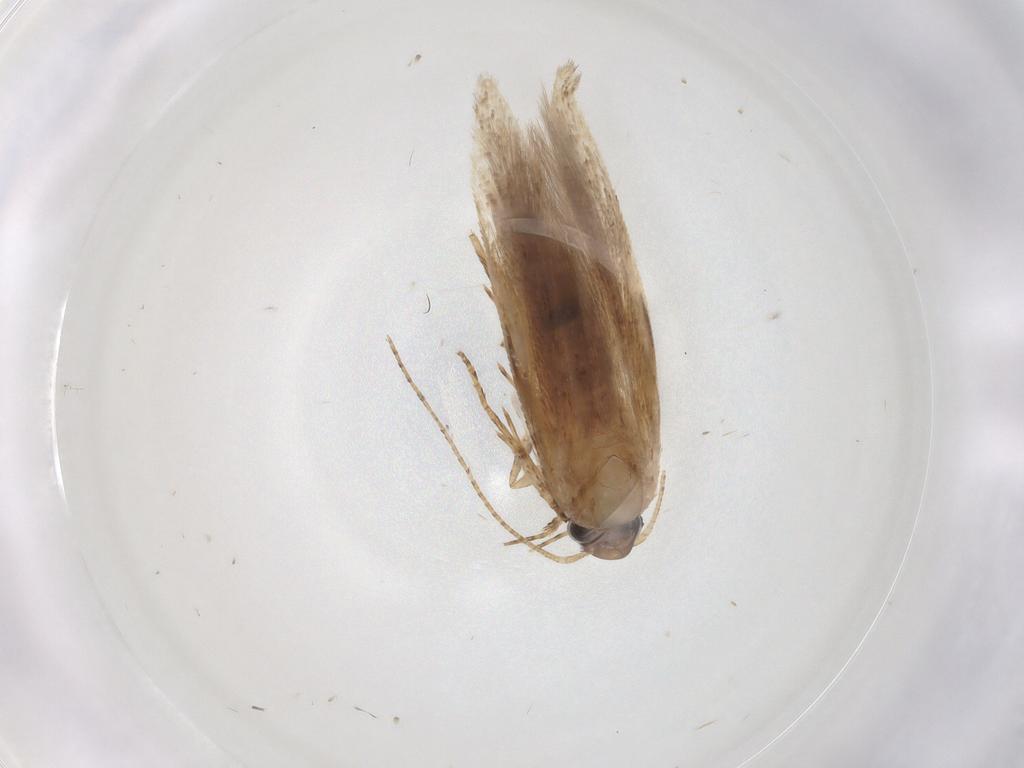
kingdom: Animalia
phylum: Arthropoda
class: Insecta
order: Lepidoptera
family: Gelechiidae
